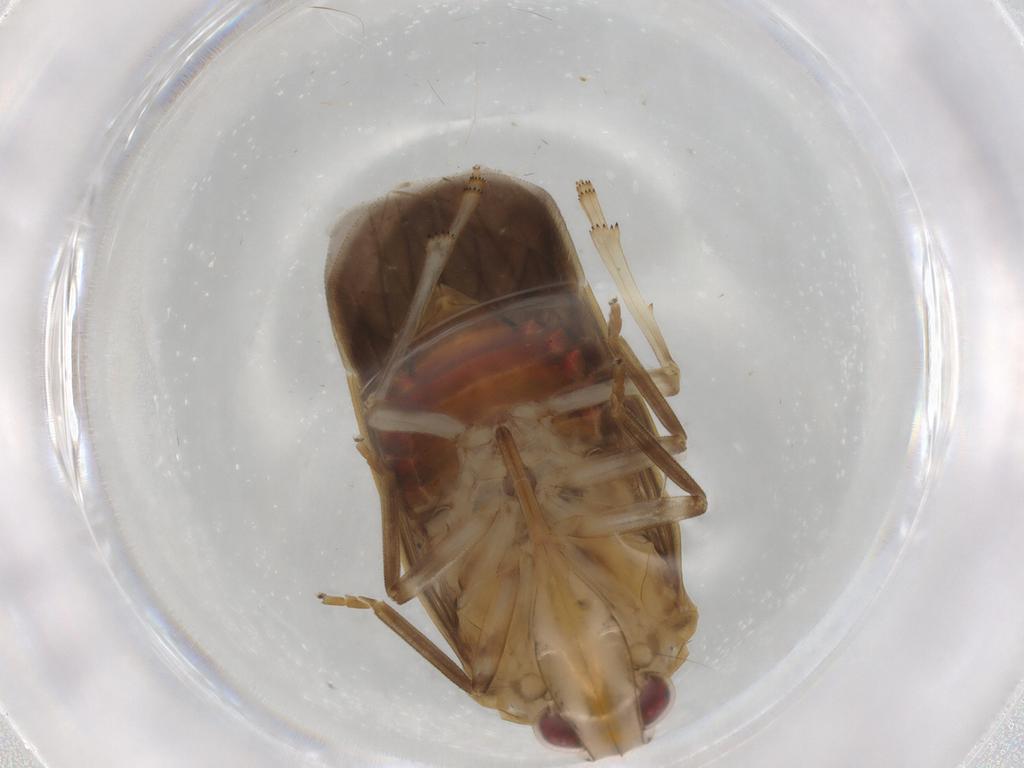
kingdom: Animalia
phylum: Arthropoda
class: Insecta
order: Hemiptera
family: Achilidae
